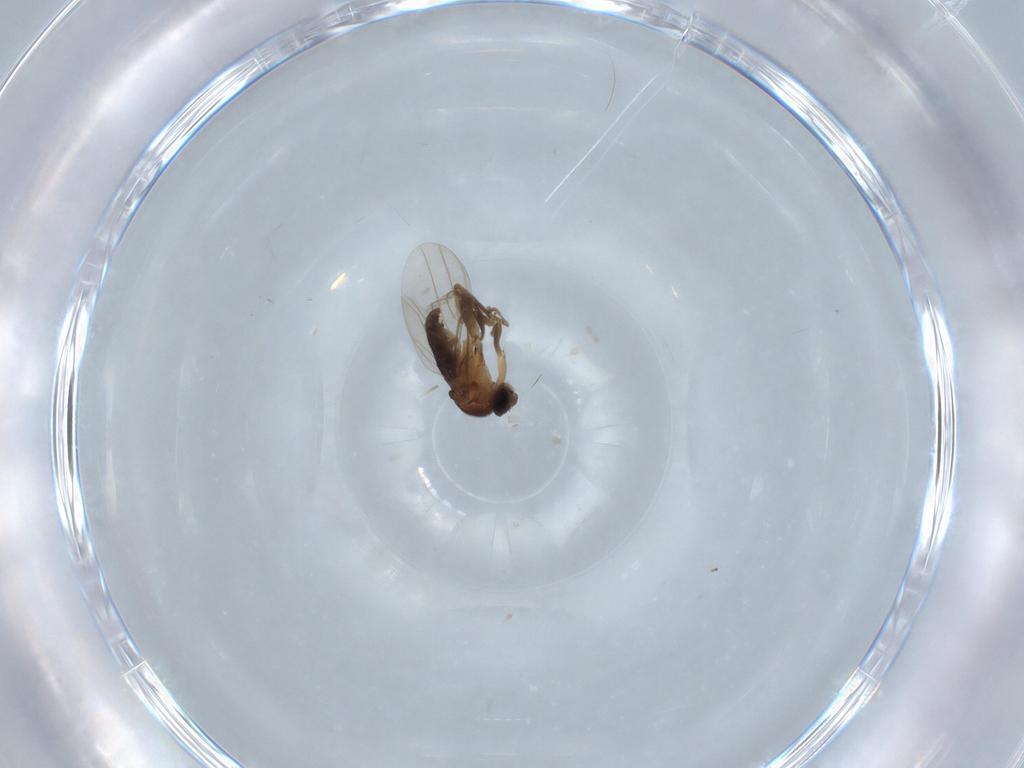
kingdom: Animalia
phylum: Arthropoda
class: Insecta
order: Diptera
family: Phoridae
